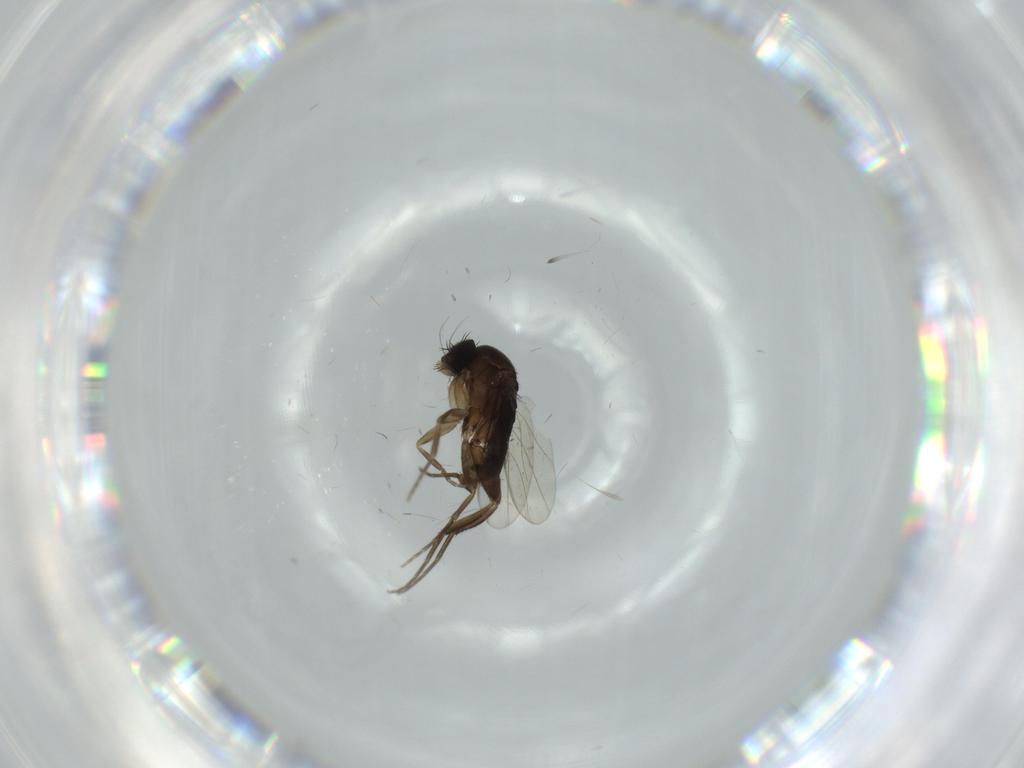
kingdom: Animalia
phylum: Arthropoda
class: Insecta
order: Diptera
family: Phoridae
